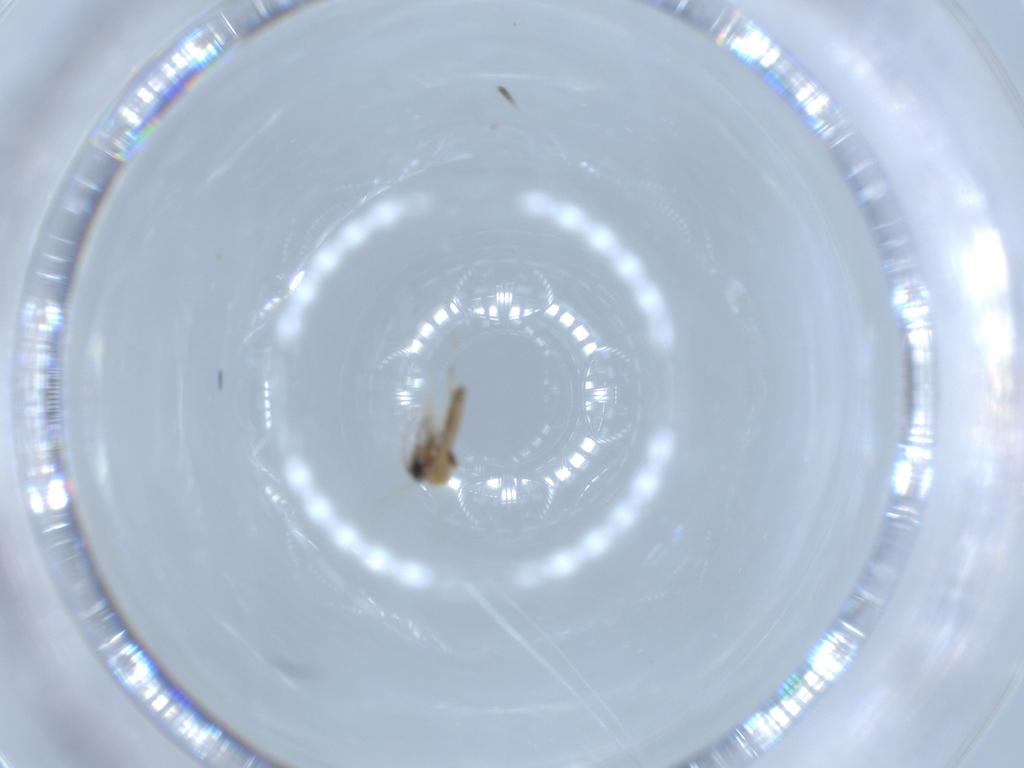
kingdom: Animalia
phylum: Arthropoda
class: Insecta
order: Diptera
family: Ceratopogonidae
